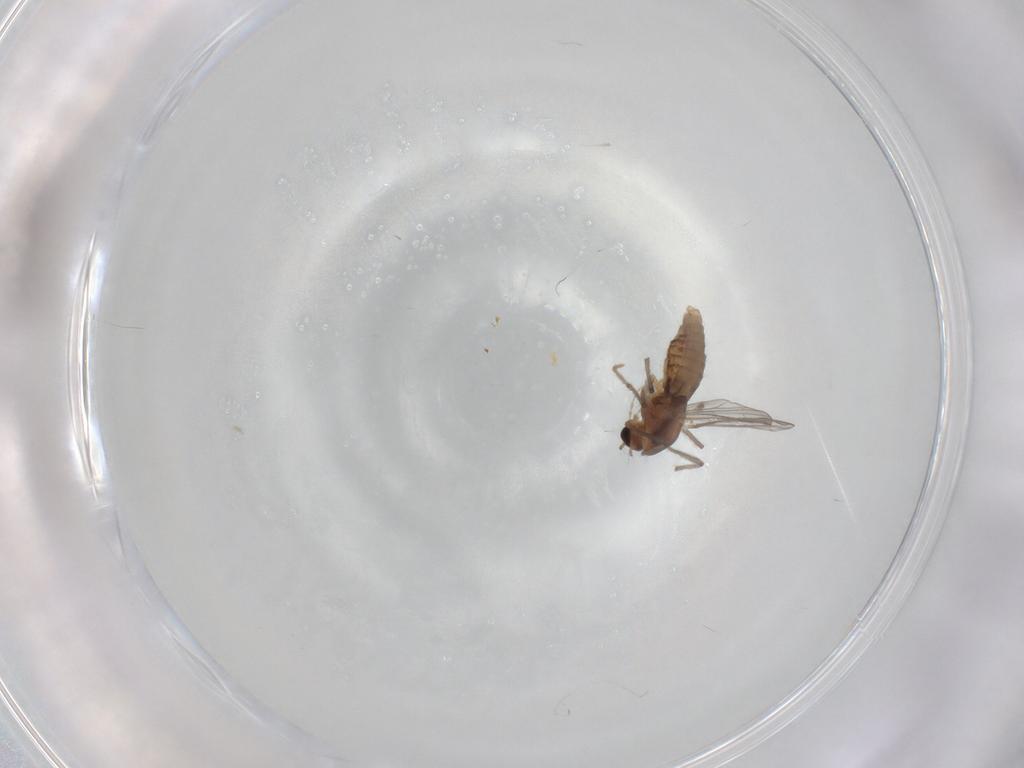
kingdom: Animalia
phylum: Arthropoda
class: Insecta
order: Diptera
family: Chironomidae
